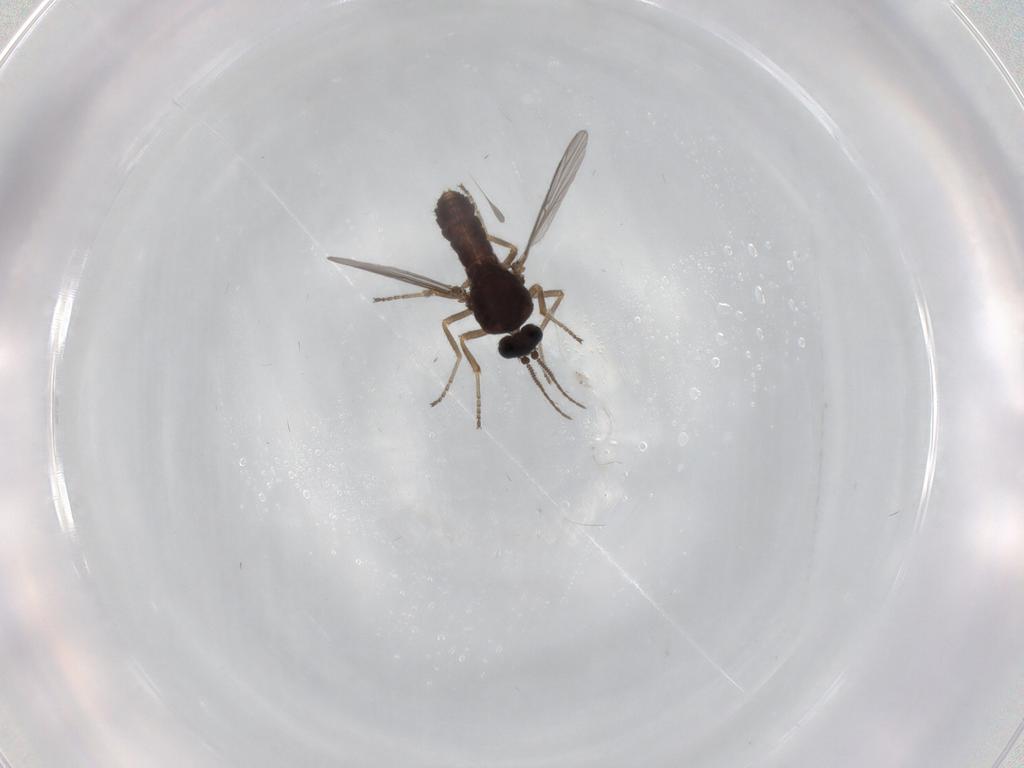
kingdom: Animalia
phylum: Arthropoda
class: Insecta
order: Diptera
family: Ceratopogonidae
